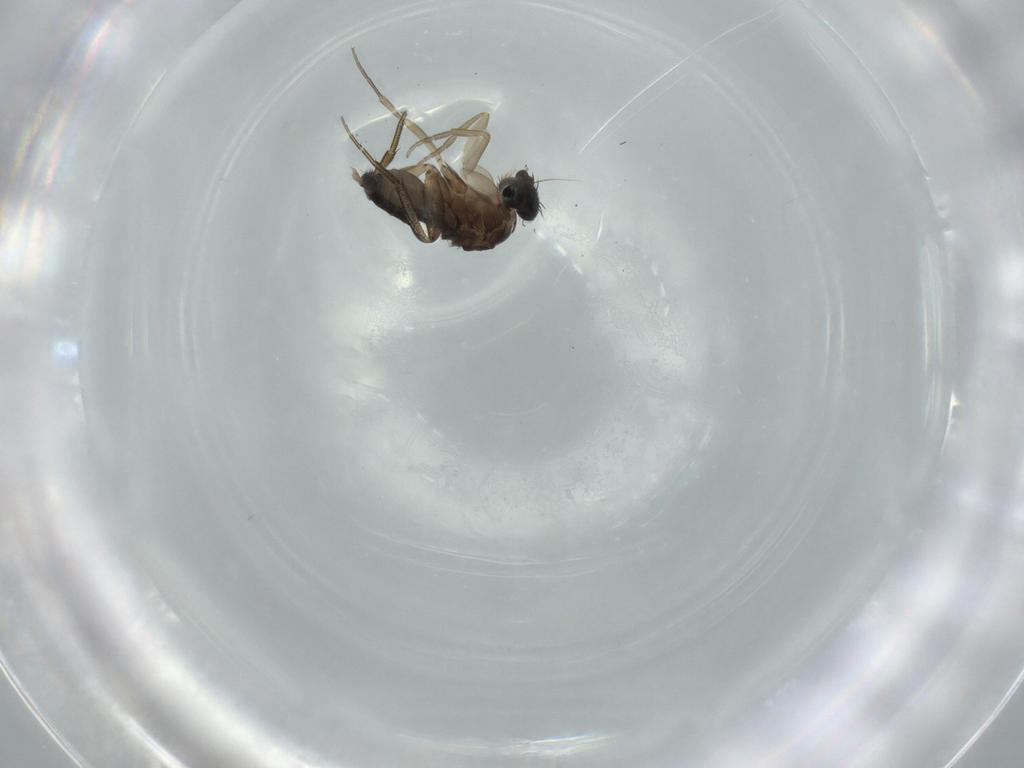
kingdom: Animalia
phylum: Arthropoda
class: Insecta
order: Diptera
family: Phoridae
